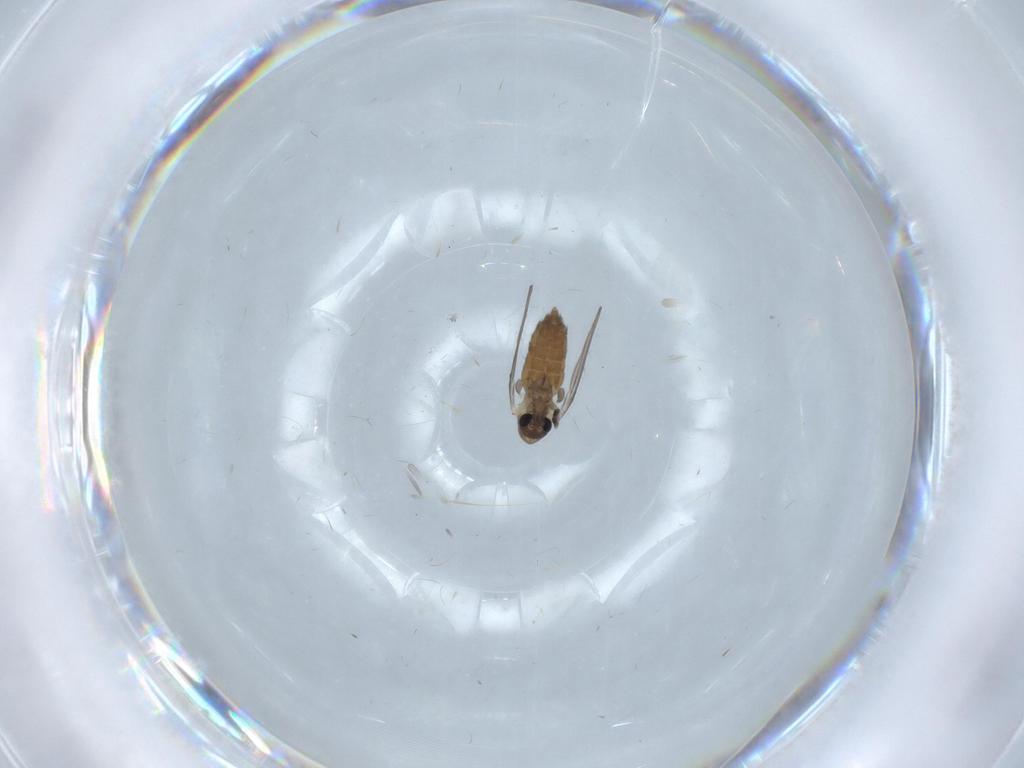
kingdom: Animalia
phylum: Arthropoda
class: Insecta
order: Diptera
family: Psychodidae
